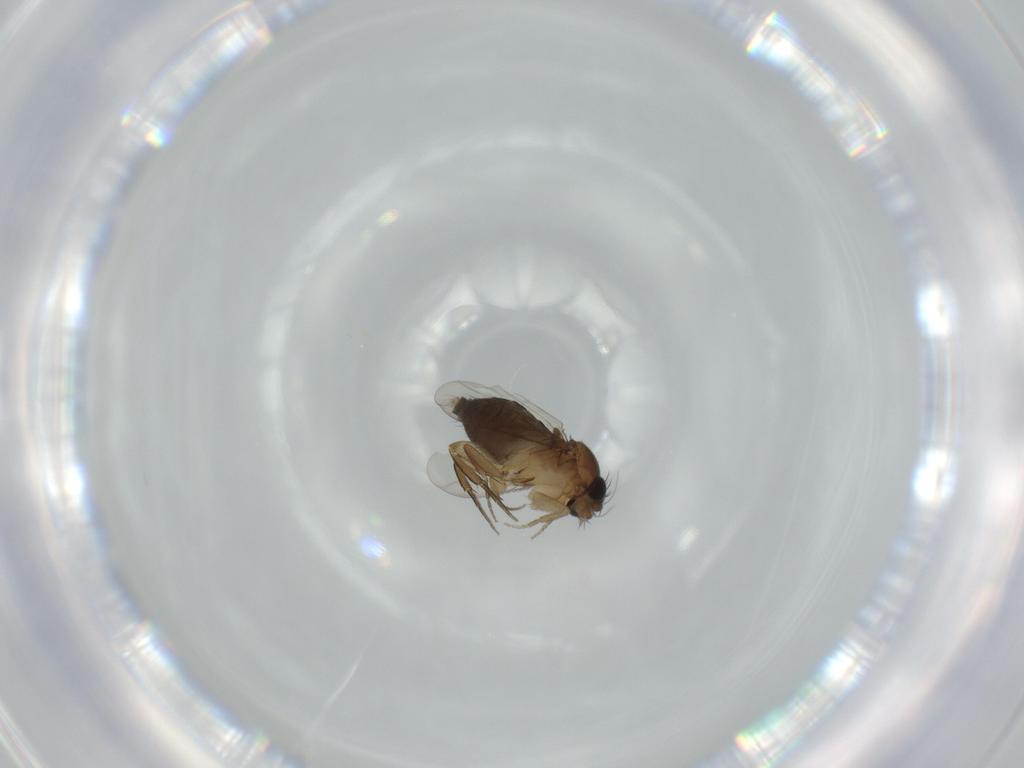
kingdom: Animalia
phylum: Arthropoda
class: Insecta
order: Diptera
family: Phoridae
